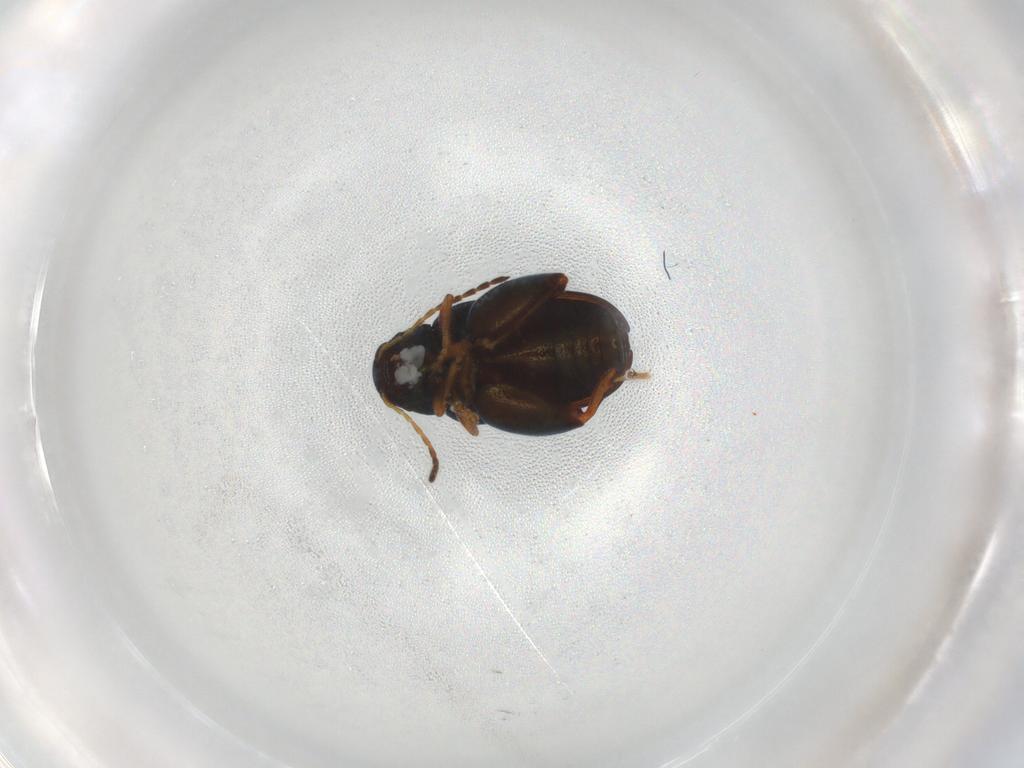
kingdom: Animalia
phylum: Arthropoda
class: Insecta
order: Coleoptera
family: Chrysomelidae
